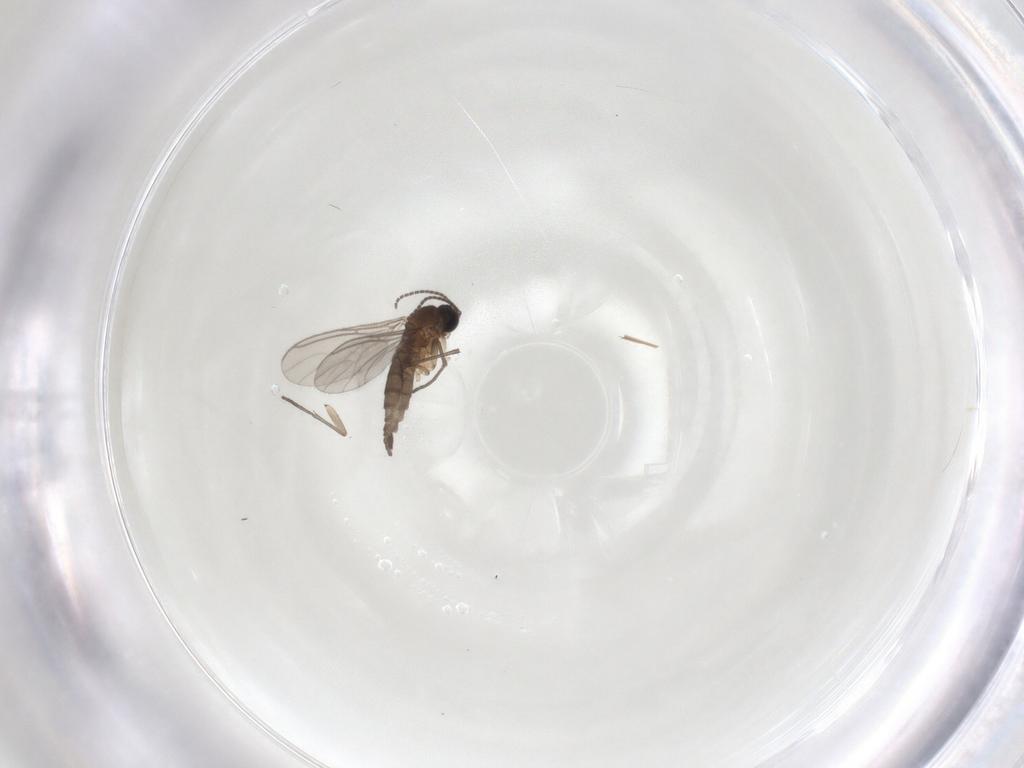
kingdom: Animalia
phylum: Arthropoda
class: Insecta
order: Diptera
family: Sciaridae
